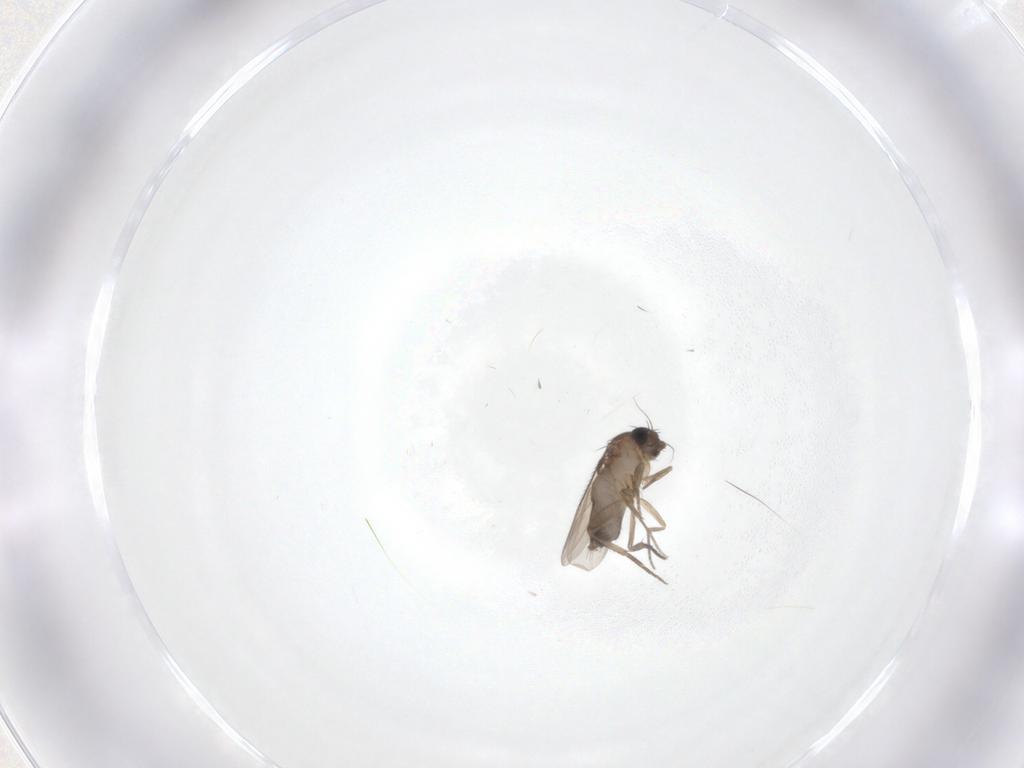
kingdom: Animalia
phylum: Arthropoda
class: Insecta
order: Diptera
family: Phoridae
